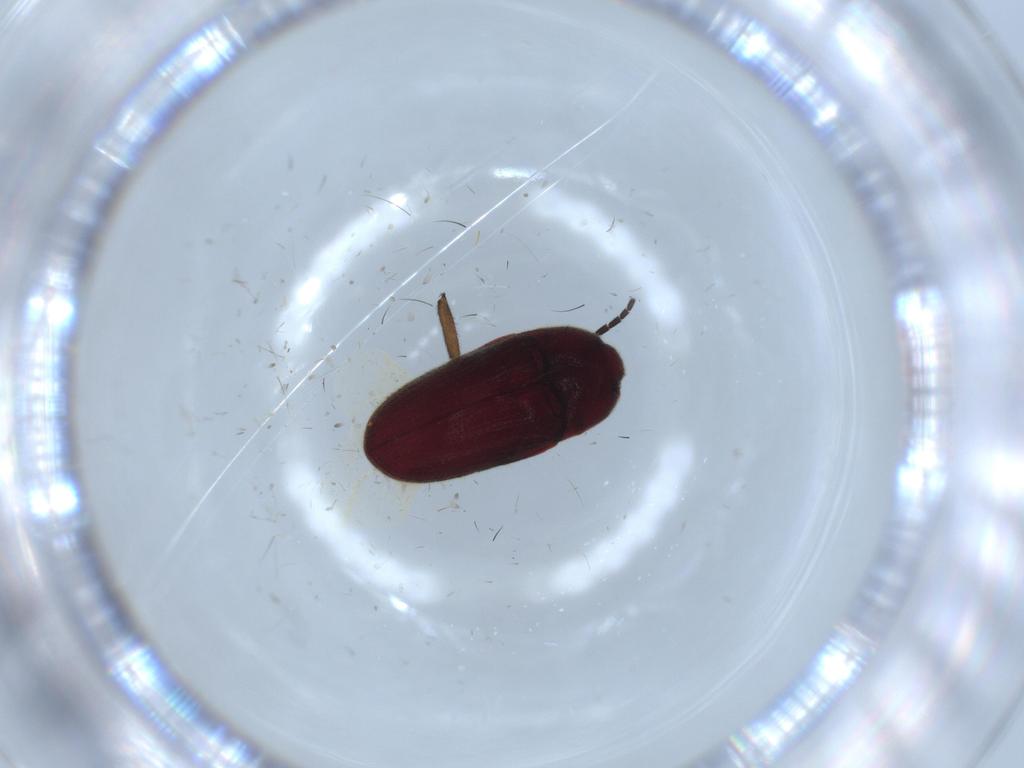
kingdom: Animalia
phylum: Arthropoda
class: Insecta
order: Coleoptera
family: Throscidae
